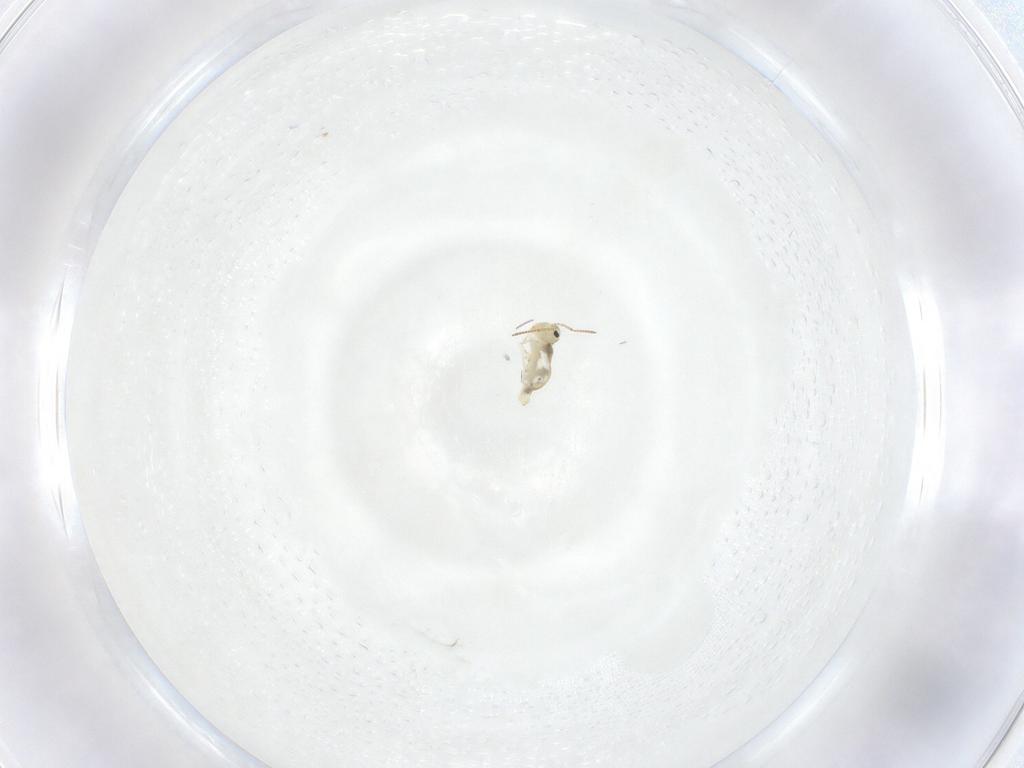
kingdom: Animalia
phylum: Arthropoda
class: Collembola
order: Symphypleona
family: Bourletiellidae
